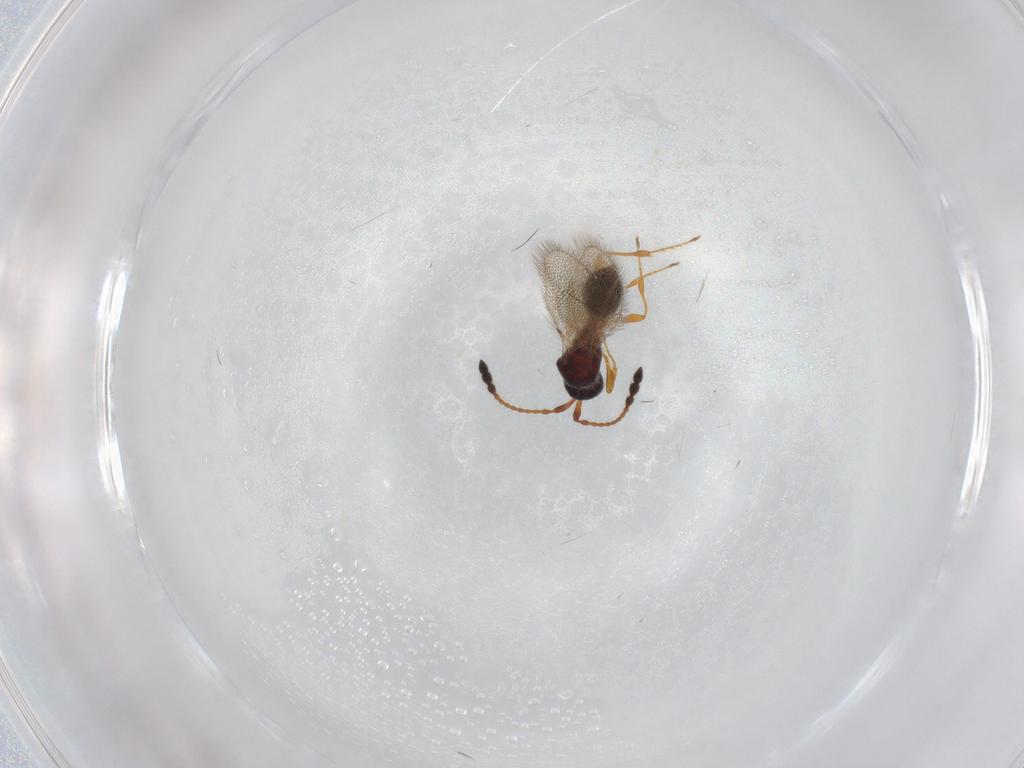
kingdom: Animalia
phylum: Arthropoda
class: Insecta
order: Hymenoptera
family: Diapriidae
